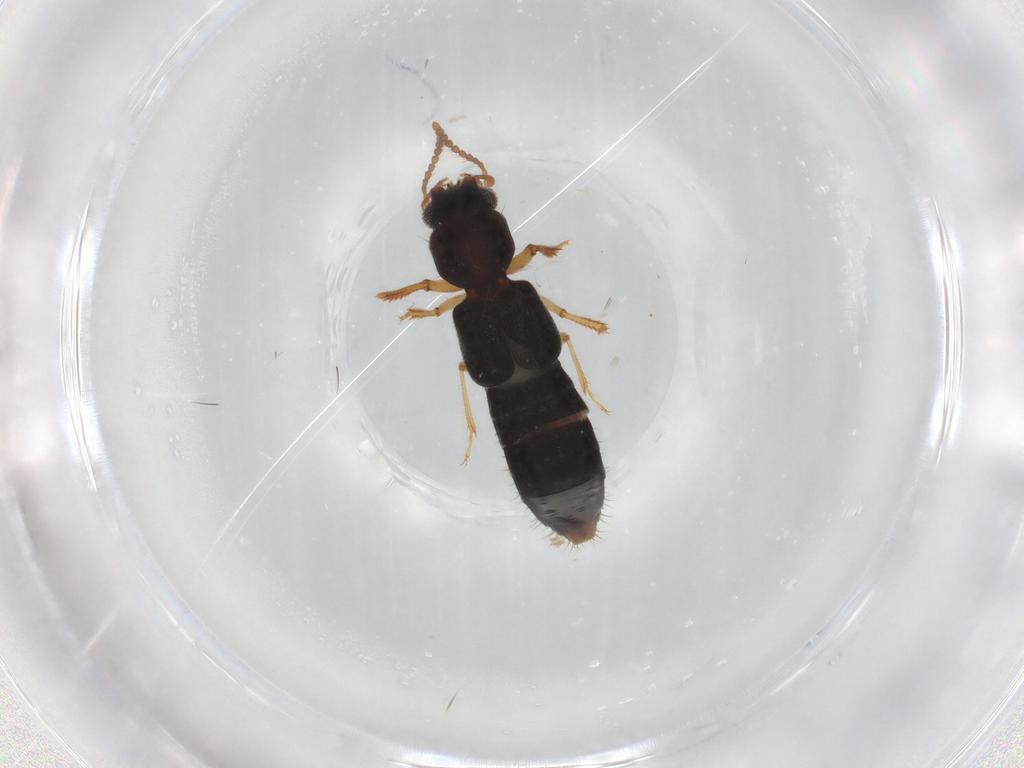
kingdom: Animalia
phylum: Arthropoda
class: Insecta
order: Coleoptera
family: Staphylinidae
